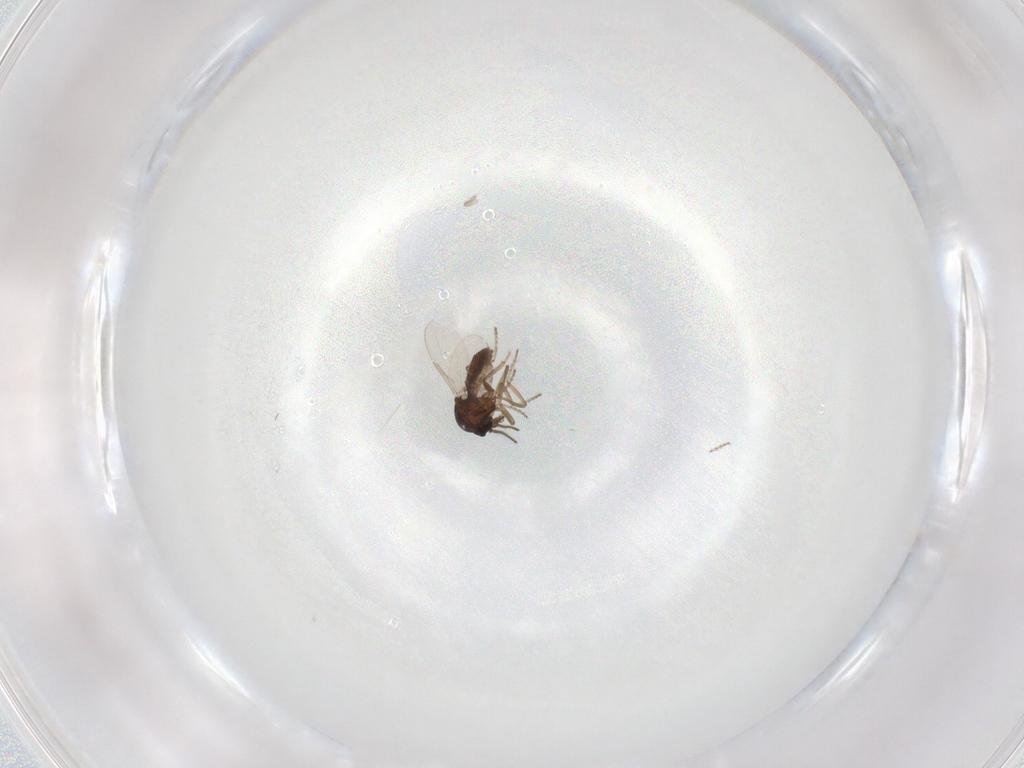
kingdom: Animalia
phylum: Arthropoda
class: Insecta
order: Diptera
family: Ceratopogonidae
